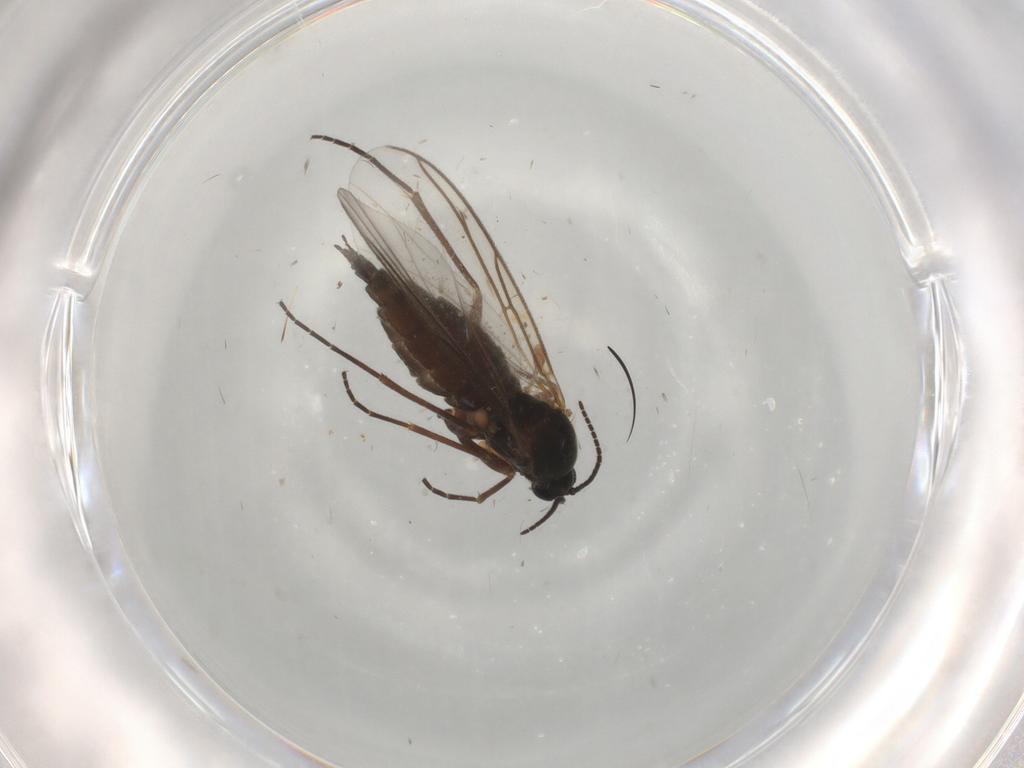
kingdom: Animalia
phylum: Arthropoda
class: Insecta
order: Diptera
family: Sciaridae
